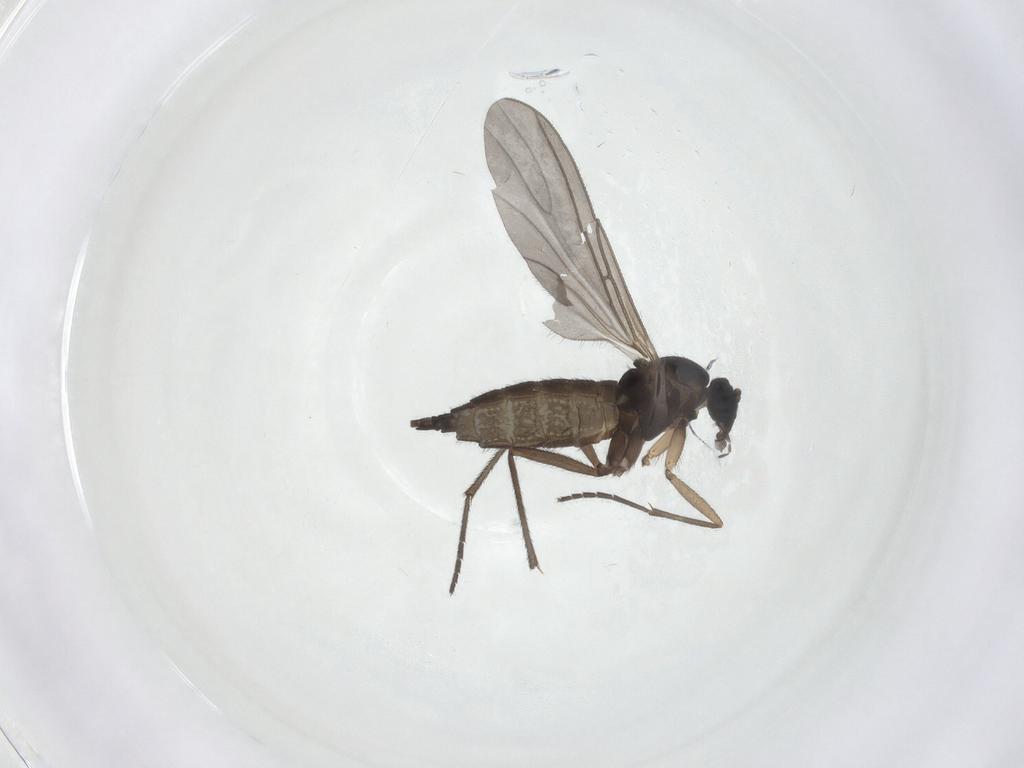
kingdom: Animalia
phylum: Arthropoda
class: Insecta
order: Diptera
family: Sciaridae
